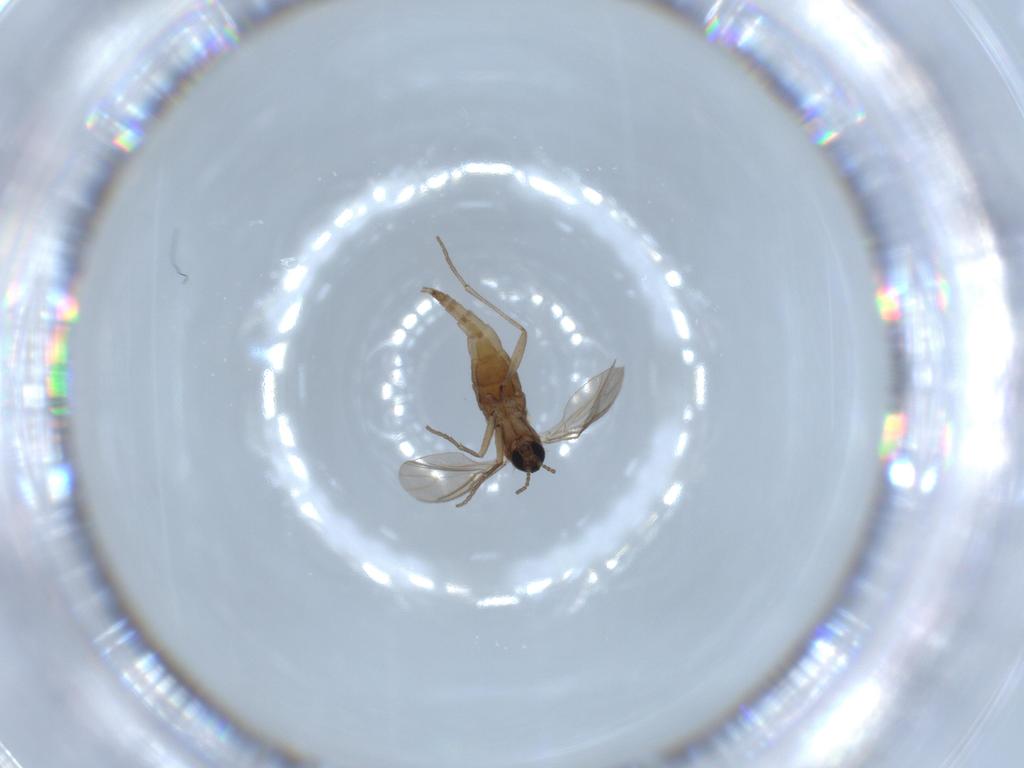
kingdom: Animalia
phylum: Arthropoda
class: Insecta
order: Diptera
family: Sciaridae
